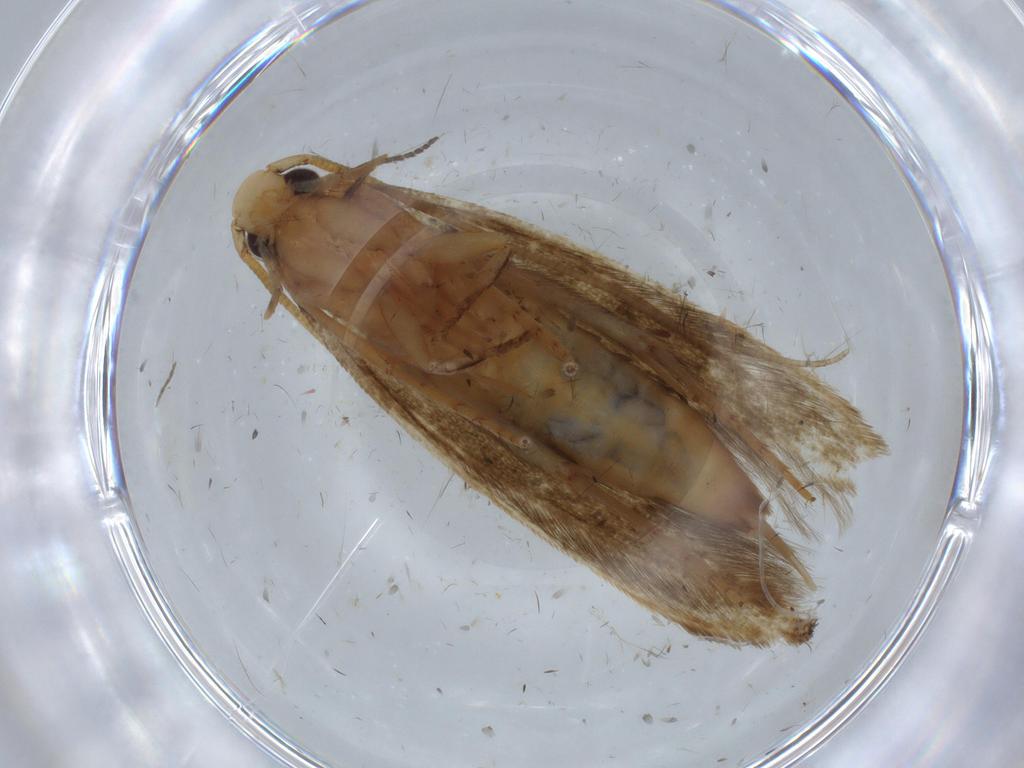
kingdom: Animalia
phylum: Arthropoda
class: Insecta
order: Lepidoptera
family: Tineidae
